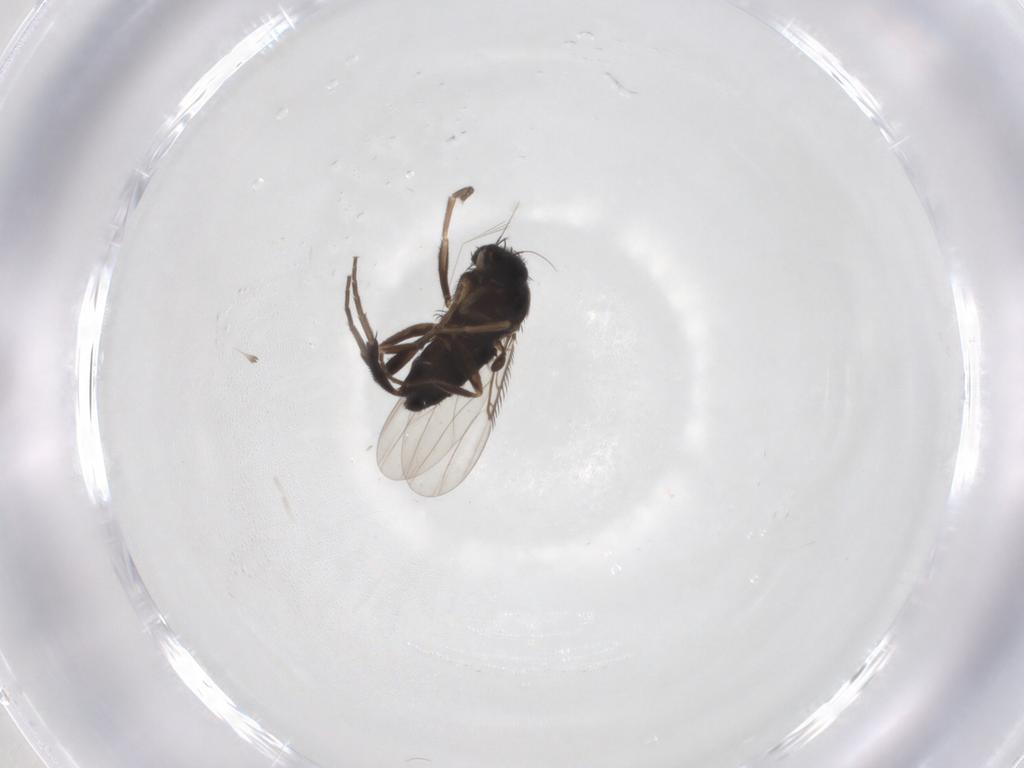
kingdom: Animalia
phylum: Arthropoda
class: Insecta
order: Diptera
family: Phoridae
